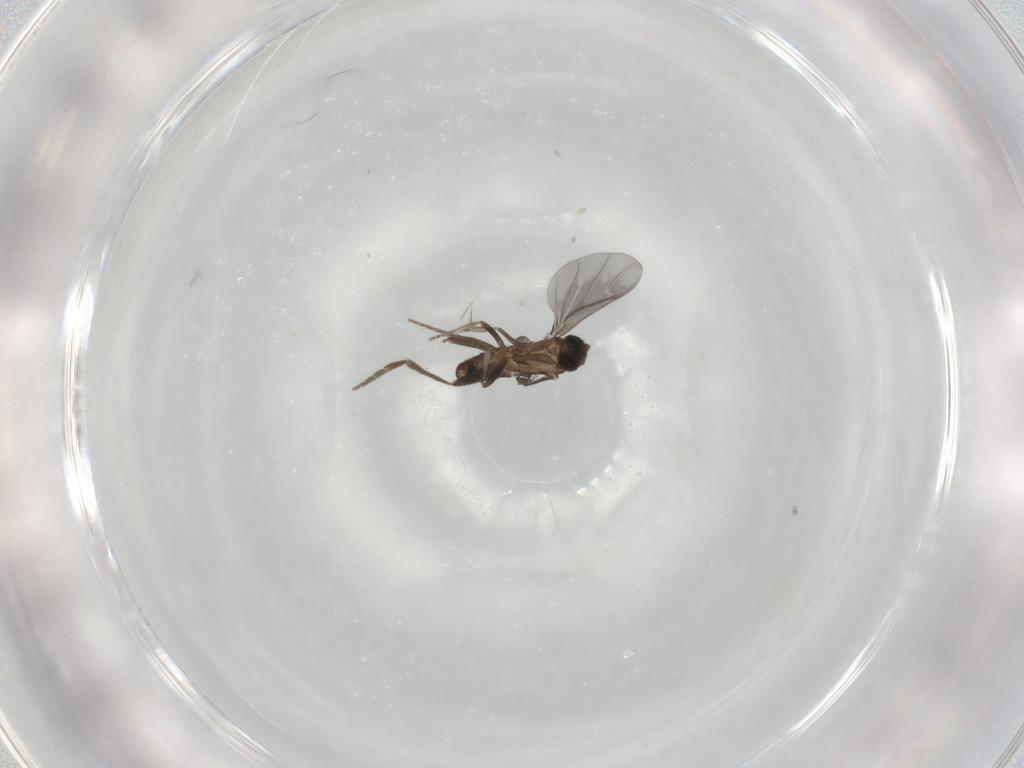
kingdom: Animalia
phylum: Arthropoda
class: Insecta
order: Diptera
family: Phoridae
